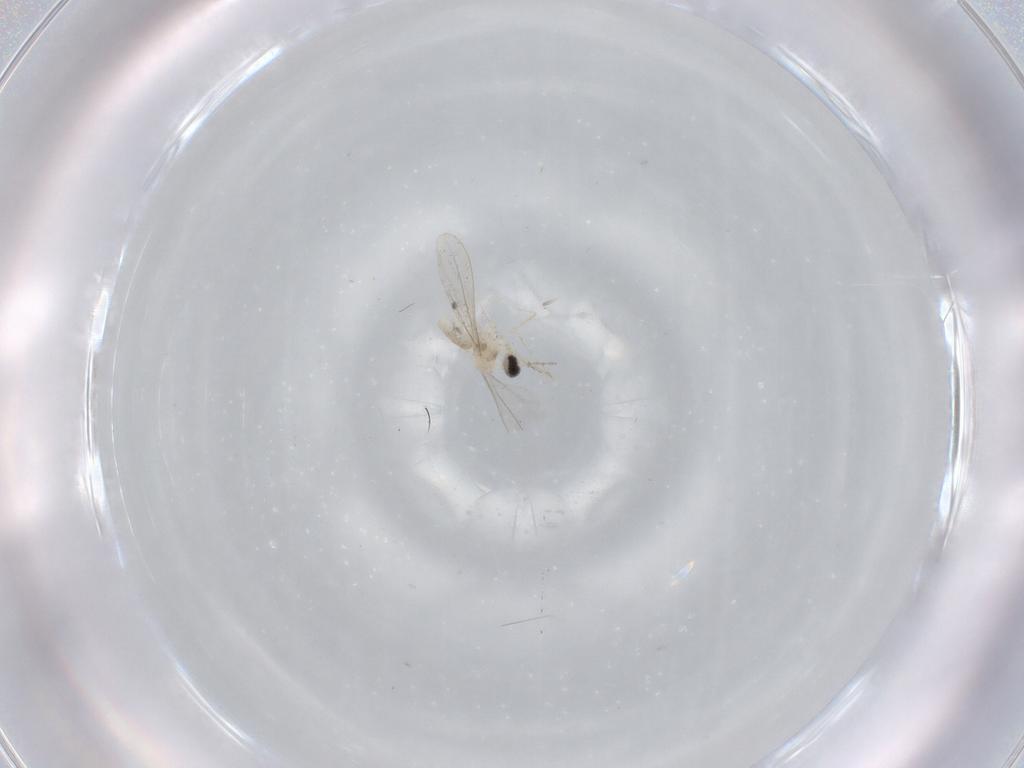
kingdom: Animalia
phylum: Arthropoda
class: Insecta
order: Diptera
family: Cecidomyiidae
